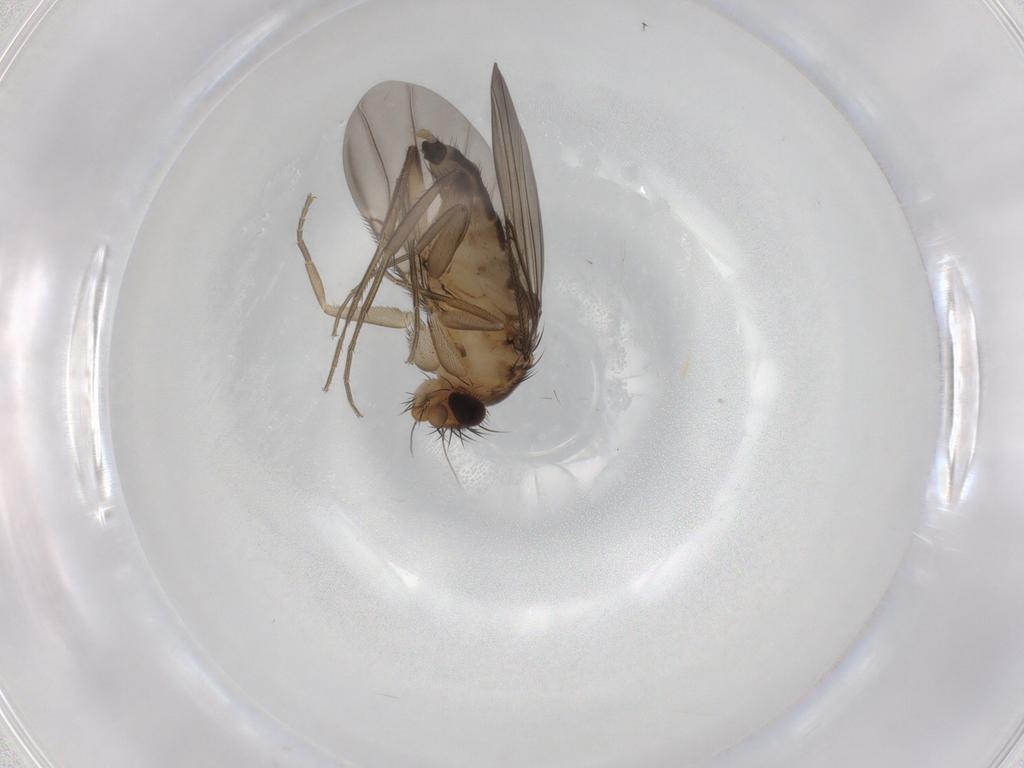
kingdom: Animalia
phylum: Arthropoda
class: Insecta
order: Diptera
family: Phoridae
